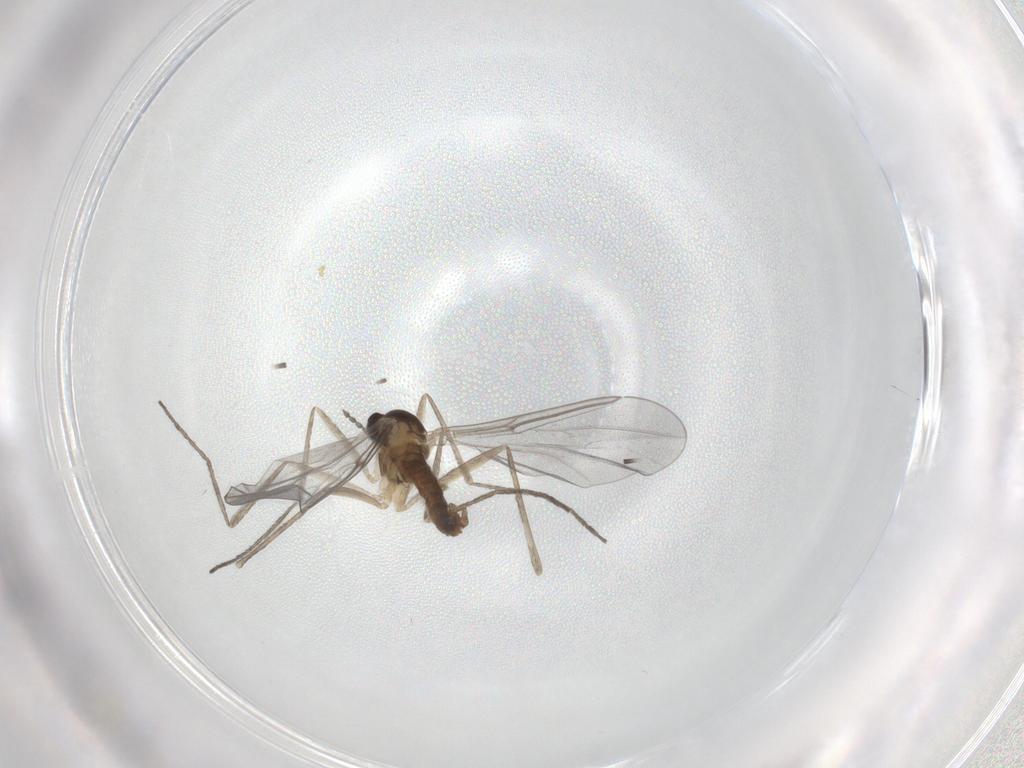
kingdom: Animalia
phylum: Arthropoda
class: Insecta
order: Diptera
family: Cecidomyiidae
